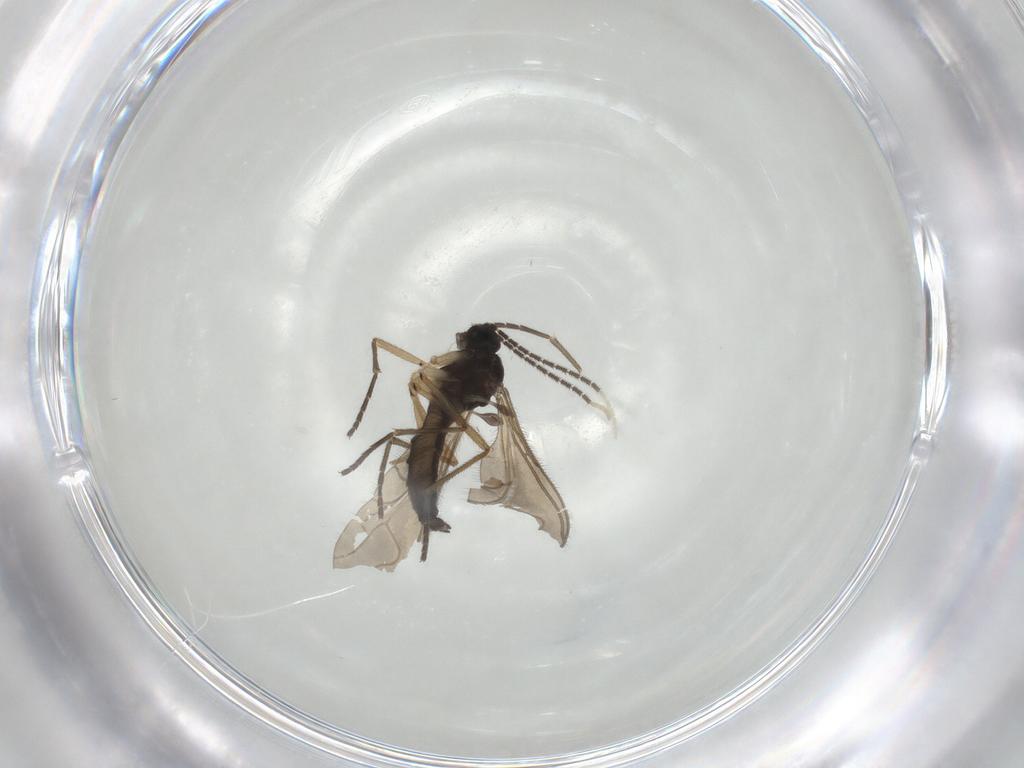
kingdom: Animalia
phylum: Arthropoda
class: Insecta
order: Diptera
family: Sciaridae
